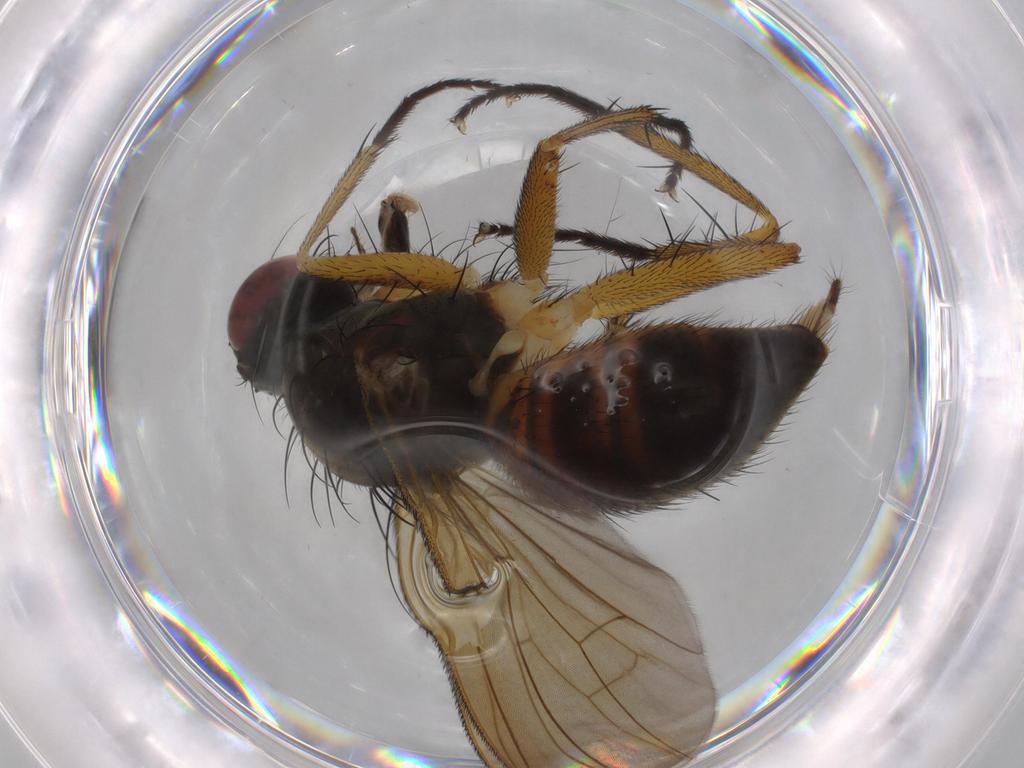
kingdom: Animalia
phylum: Arthropoda
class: Insecta
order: Diptera
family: Muscidae
